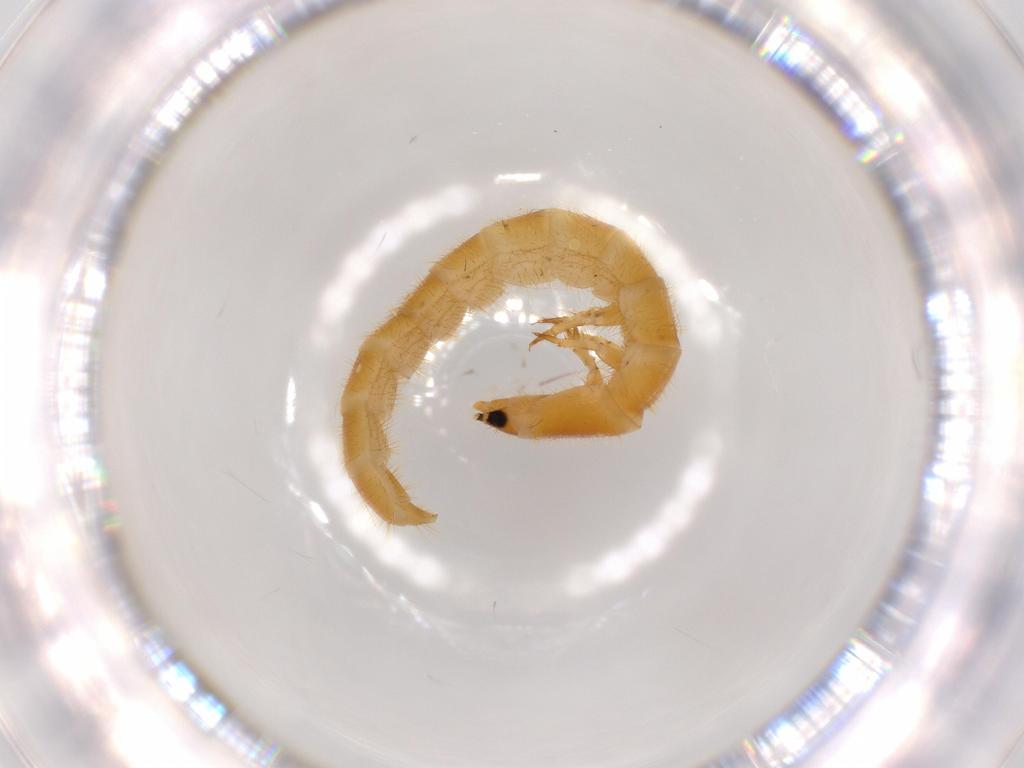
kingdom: Animalia
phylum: Arthropoda
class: Insecta
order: Coleoptera
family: Phengodidae
